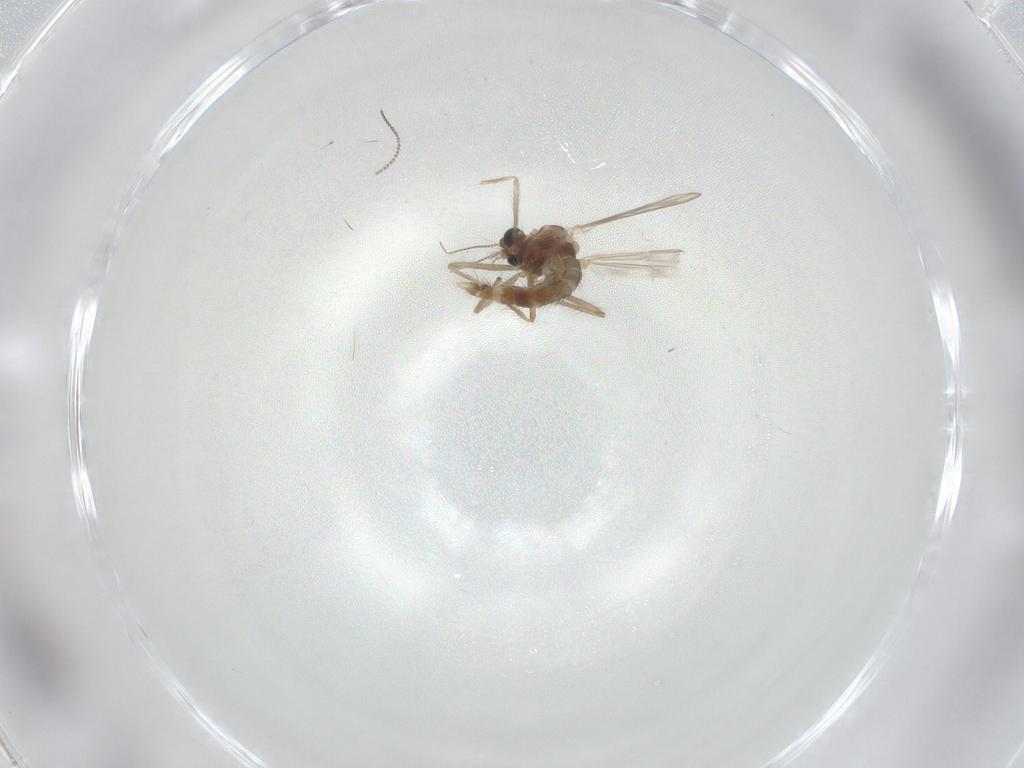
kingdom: Animalia
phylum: Arthropoda
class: Insecta
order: Diptera
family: Chironomidae
